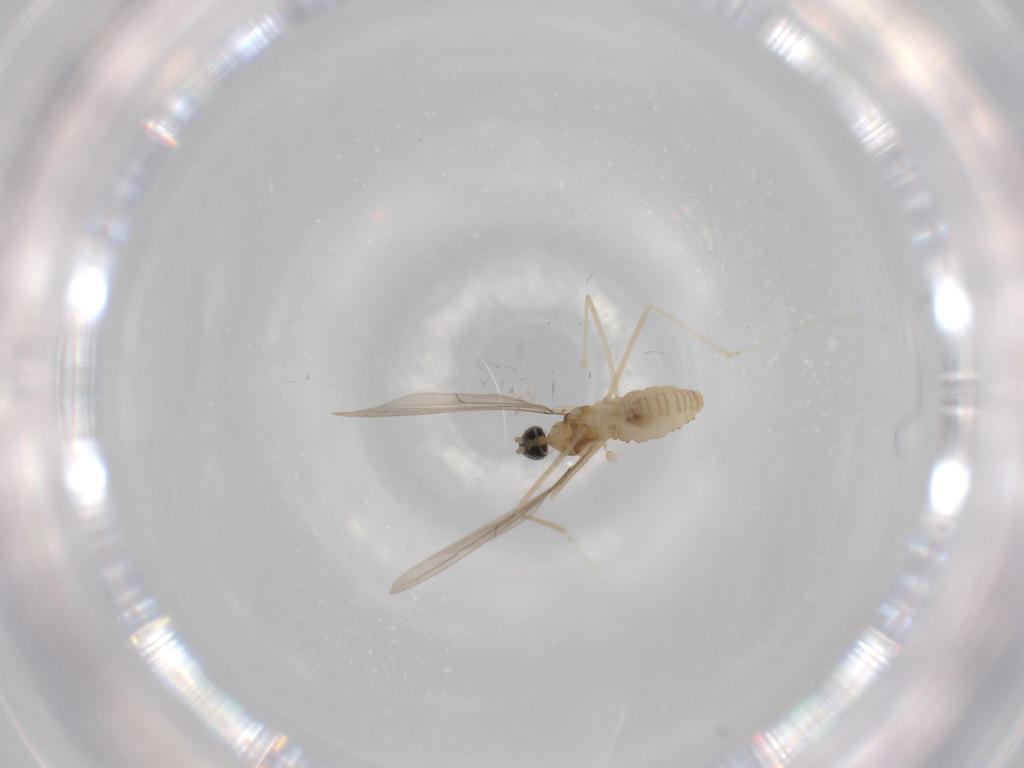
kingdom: Animalia
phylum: Arthropoda
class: Insecta
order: Diptera
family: Cecidomyiidae
